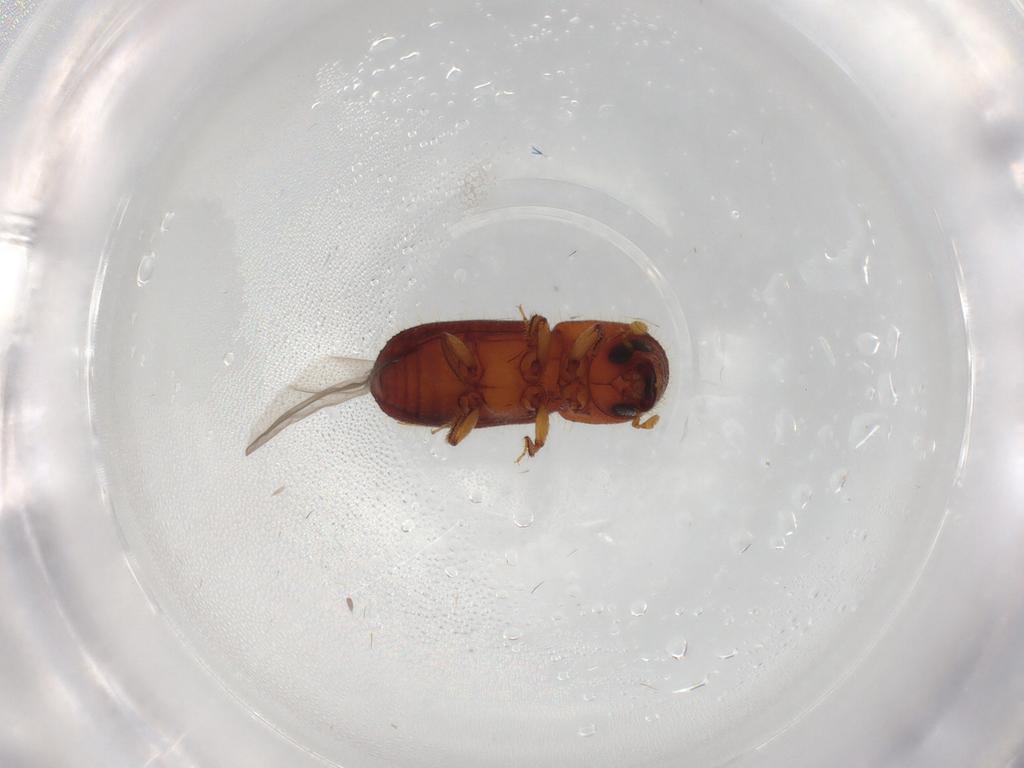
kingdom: Animalia
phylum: Arthropoda
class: Insecta
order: Coleoptera
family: Curculionidae
